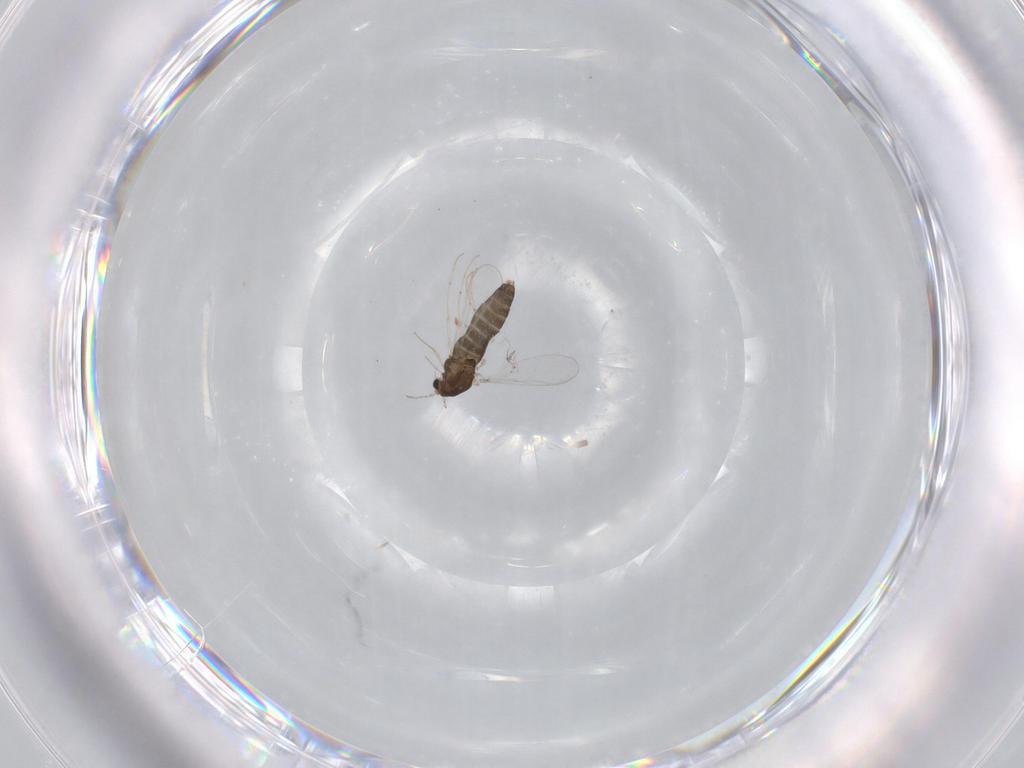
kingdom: Animalia
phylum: Arthropoda
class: Insecta
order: Diptera
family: Chironomidae
